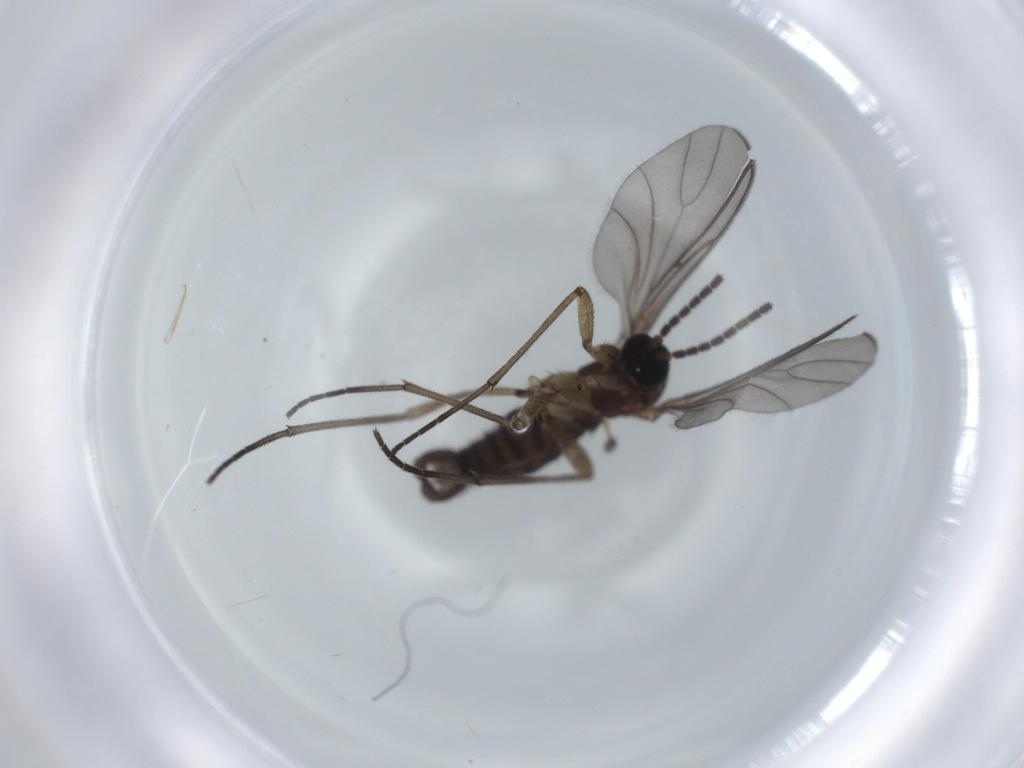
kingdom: Animalia
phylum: Arthropoda
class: Insecta
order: Diptera
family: Sciaridae
